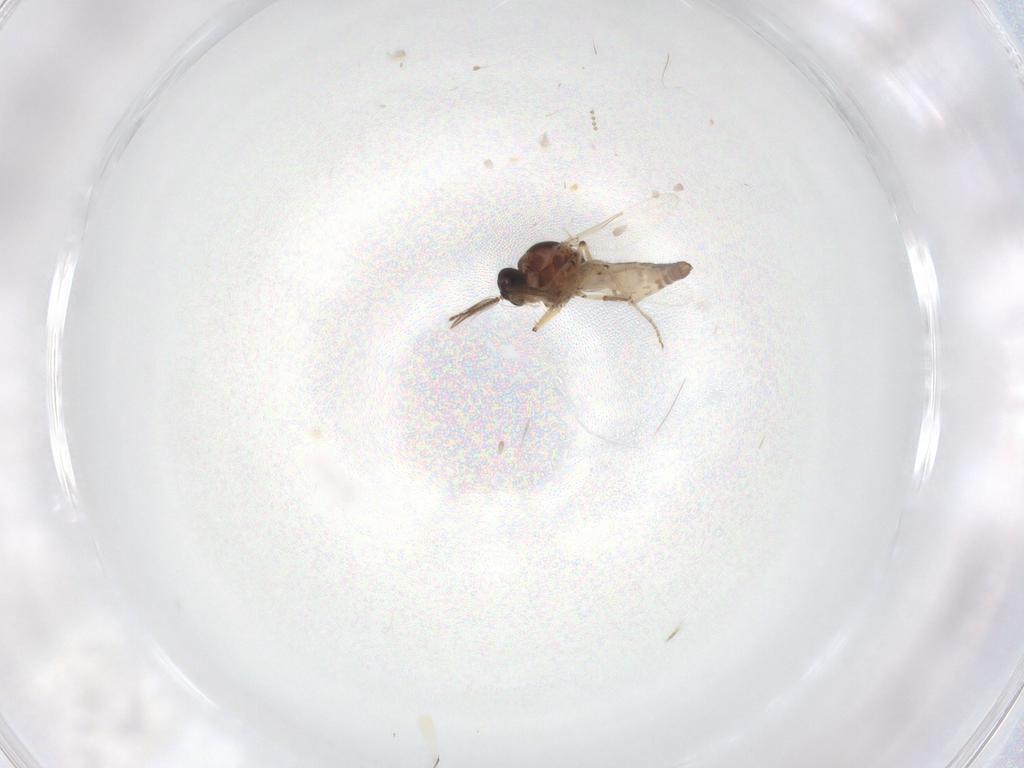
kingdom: Animalia
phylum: Arthropoda
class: Insecta
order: Diptera
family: Ceratopogonidae
